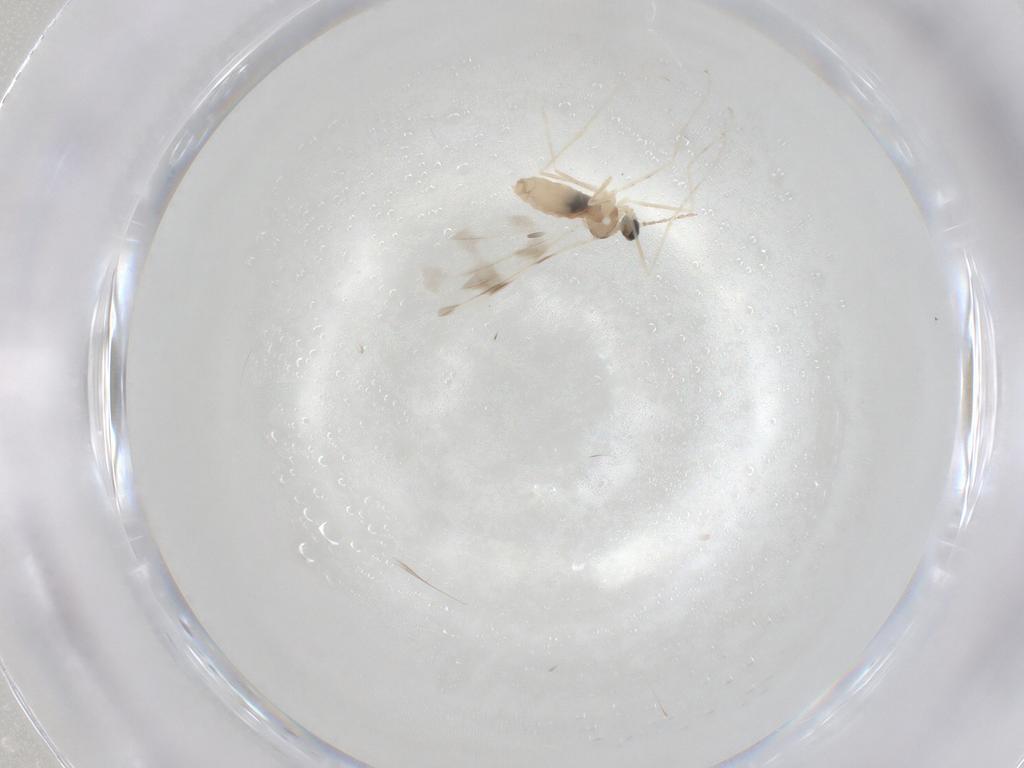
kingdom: Animalia
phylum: Arthropoda
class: Insecta
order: Diptera
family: Cecidomyiidae
